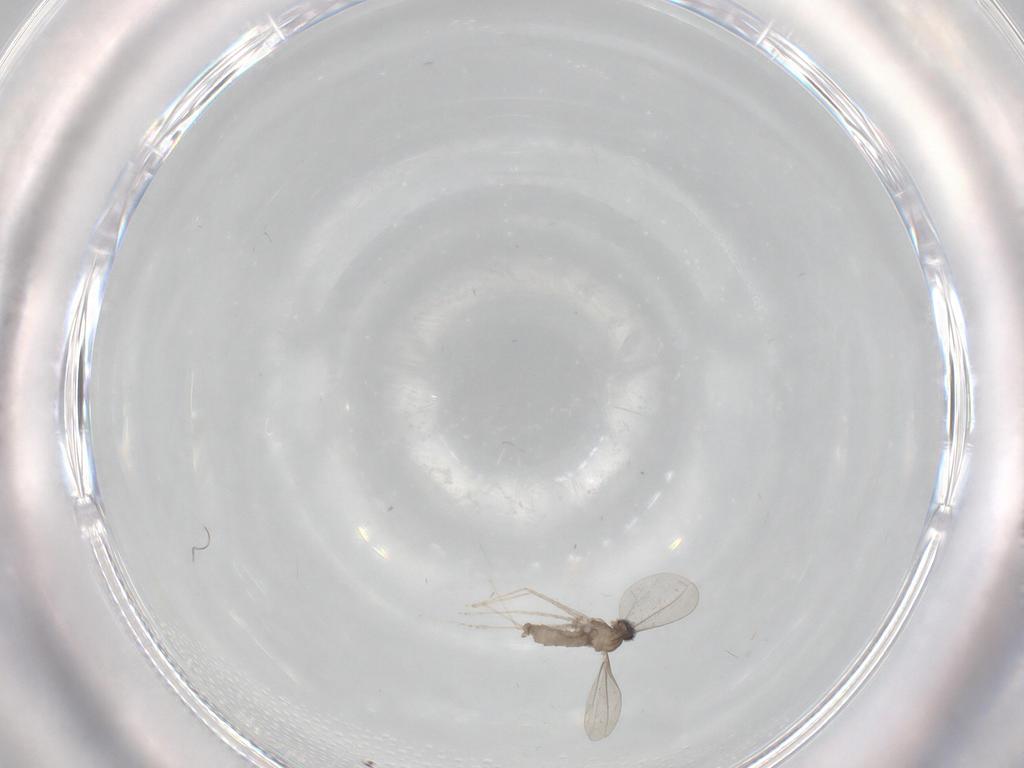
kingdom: Animalia
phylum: Arthropoda
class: Insecta
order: Diptera
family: Cecidomyiidae
